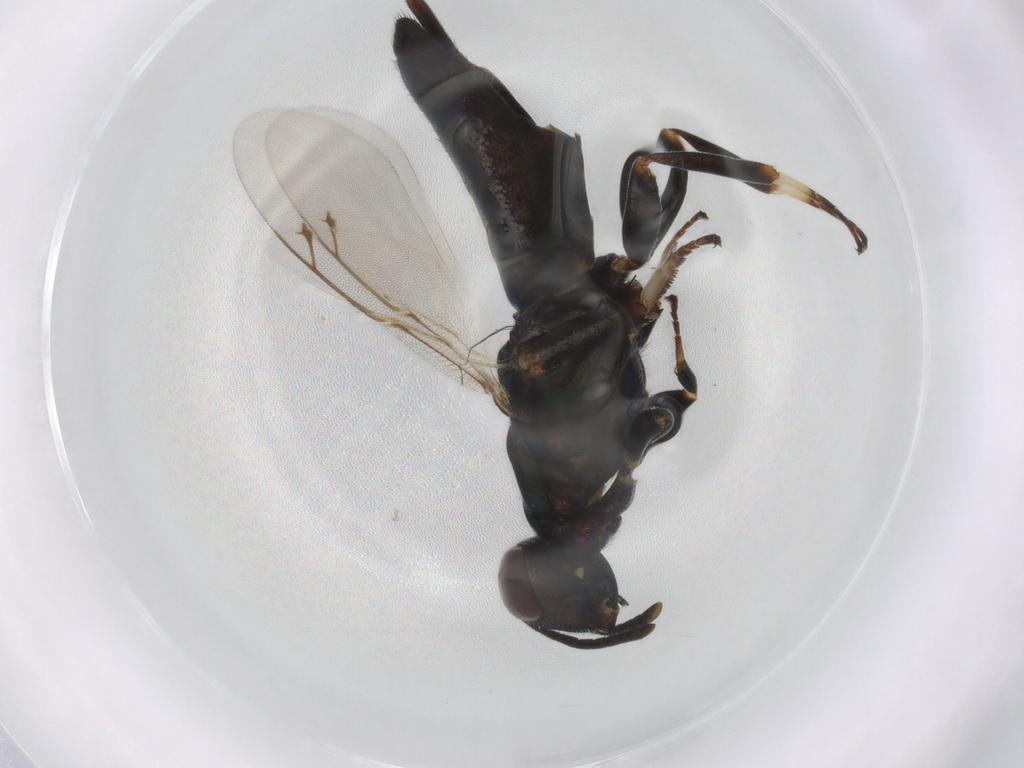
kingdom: Animalia
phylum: Arthropoda
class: Insecta
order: Hymenoptera
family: Eupelmidae
